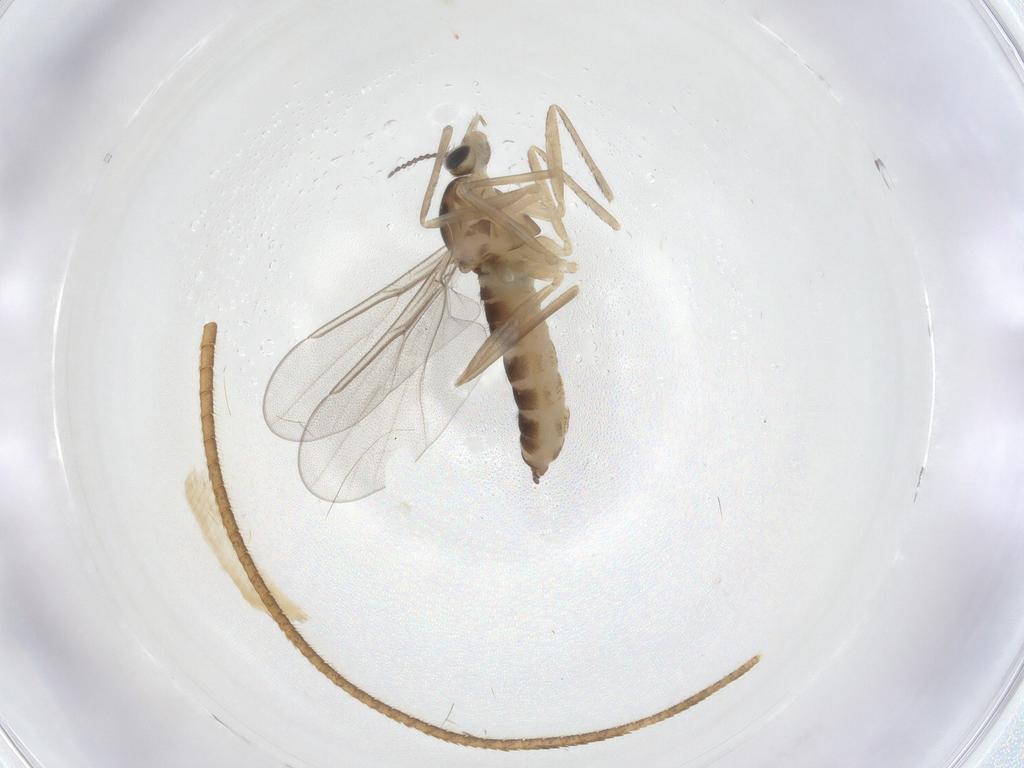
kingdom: Animalia
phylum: Arthropoda
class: Insecta
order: Diptera
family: Cecidomyiidae
